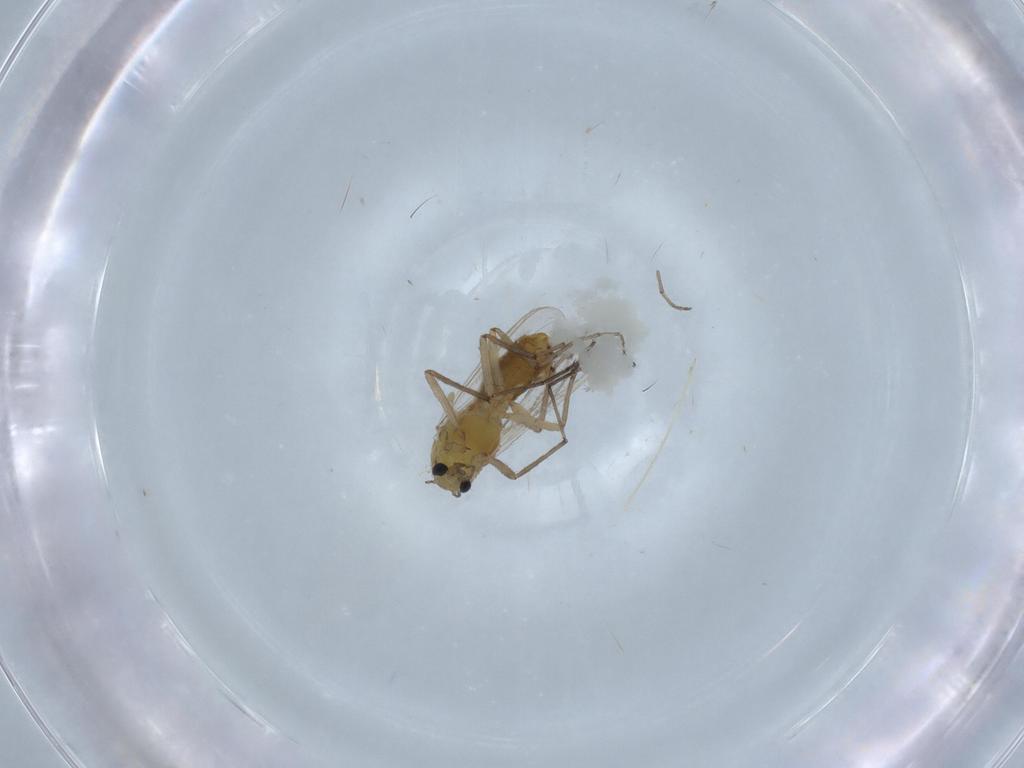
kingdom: Animalia
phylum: Arthropoda
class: Insecta
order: Diptera
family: Chironomidae
